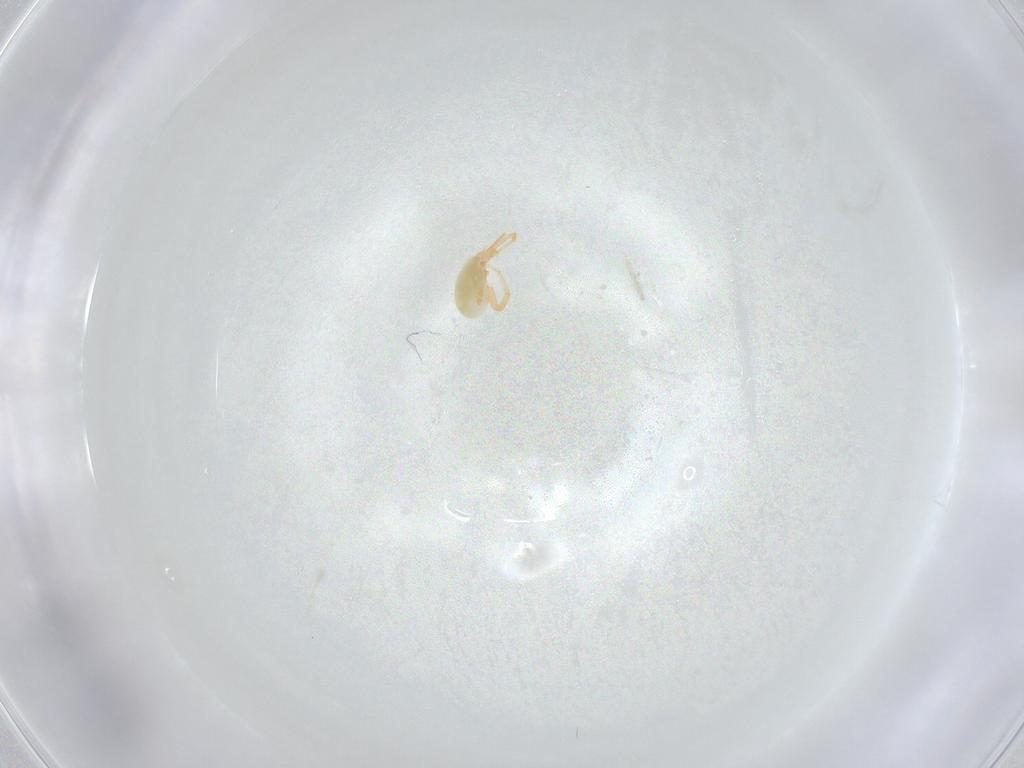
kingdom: Animalia
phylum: Arthropoda
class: Arachnida
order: Trombidiformes
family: Eupodidae
